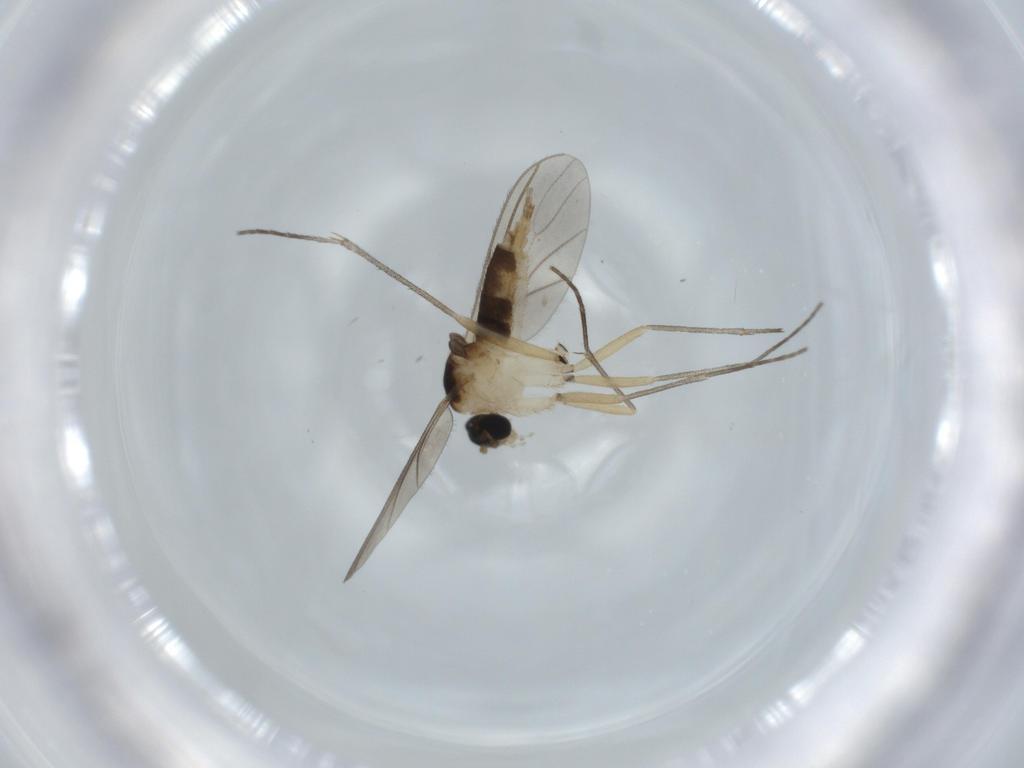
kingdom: Animalia
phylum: Arthropoda
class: Insecta
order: Diptera
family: Sciaridae
